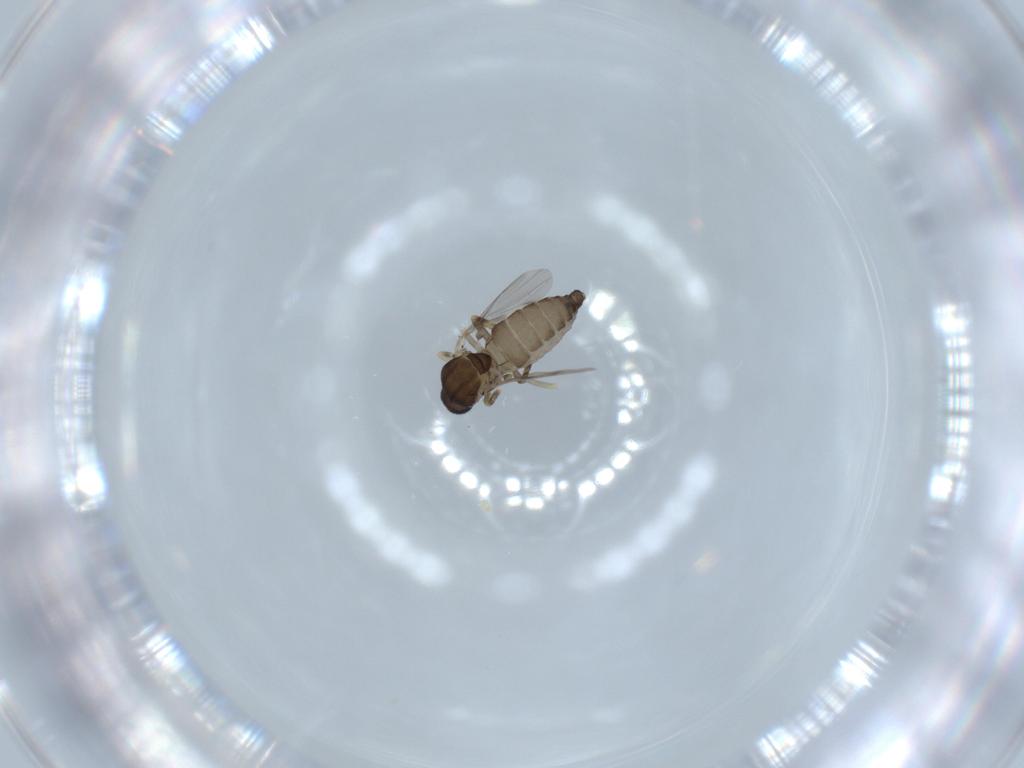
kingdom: Animalia
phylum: Arthropoda
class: Insecta
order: Diptera
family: Ceratopogonidae
